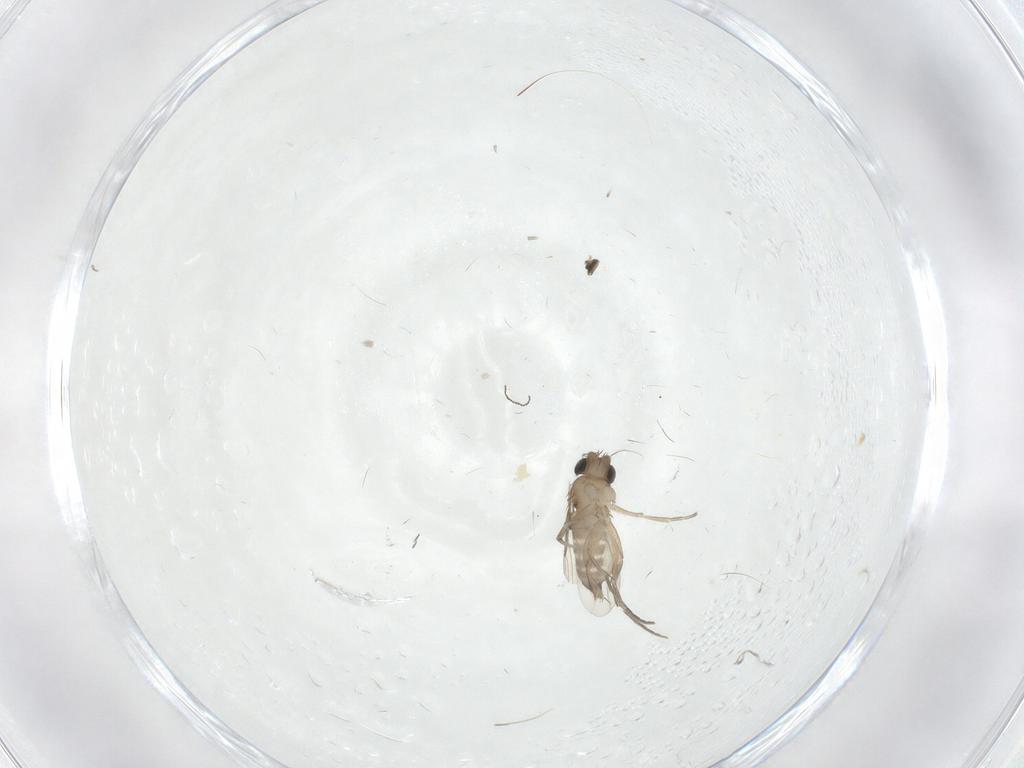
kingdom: Animalia
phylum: Arthropoda
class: Insecta
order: Diptera
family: Phoridae
